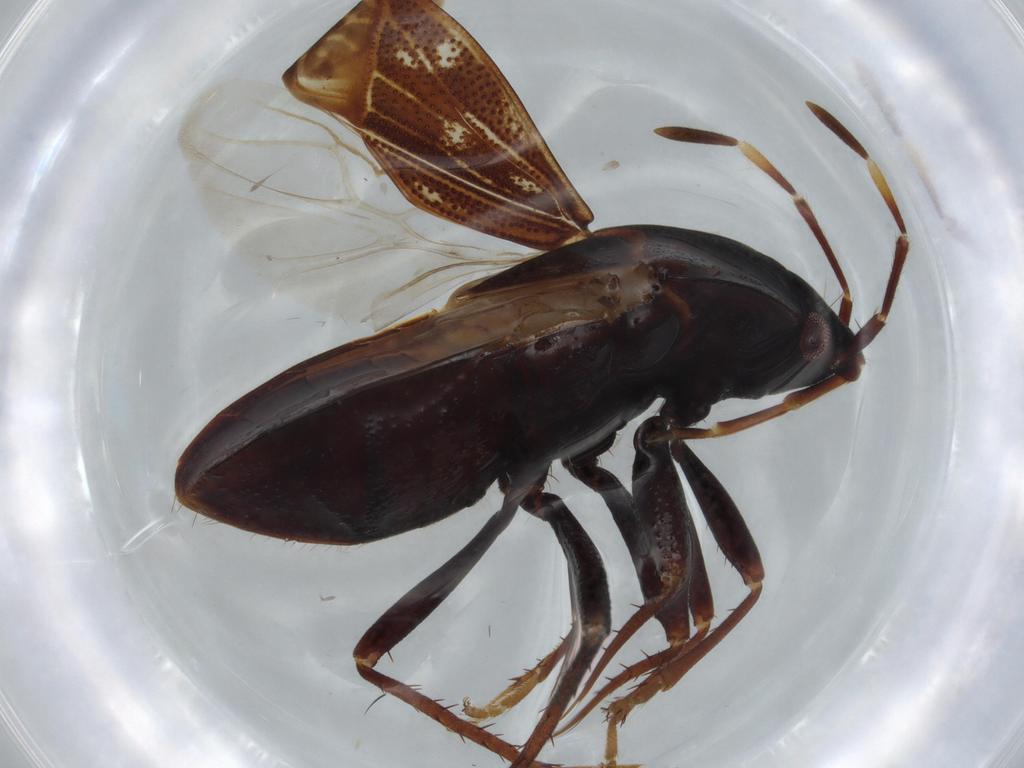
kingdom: Animalia
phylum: Arthropoda
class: Insecta
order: Hemiptera
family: Rhyparochromidae
